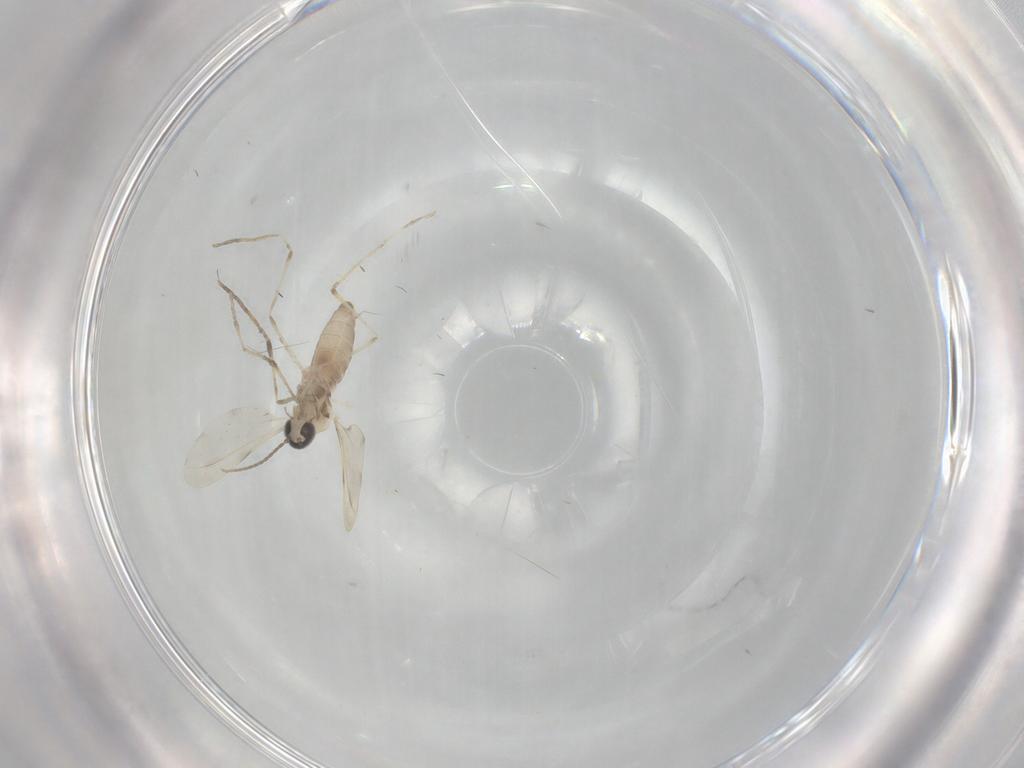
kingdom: Animalia
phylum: Arthropoda
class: Insecta
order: Diptera
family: Cecidomyiidae
